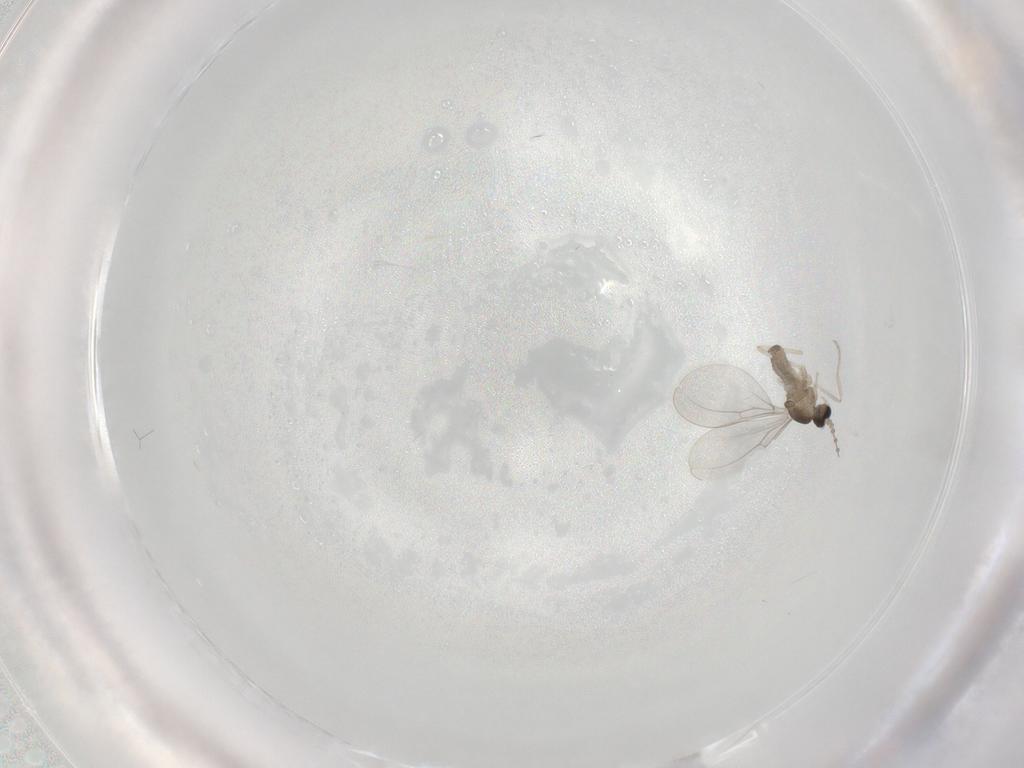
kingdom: Animalia
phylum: Arthropoda
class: Insecta
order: Diptera
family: Cecidomyiidae
